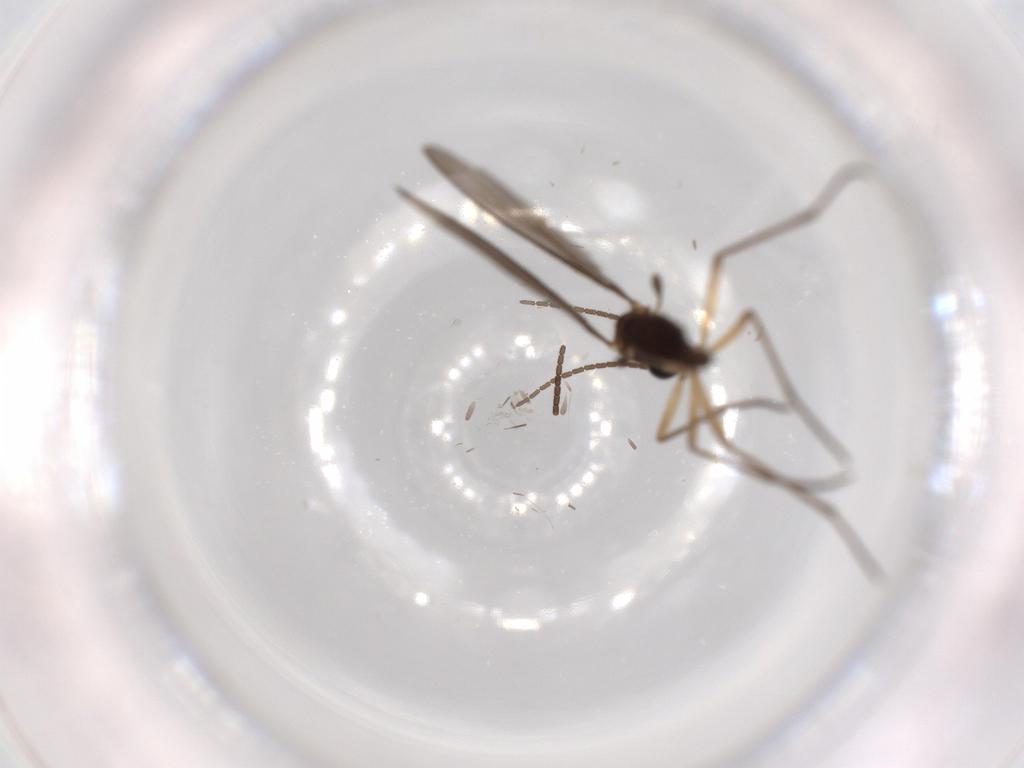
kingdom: Animalia
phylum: Arthropoda
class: Insecta
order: Diptera
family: Sciaridae
